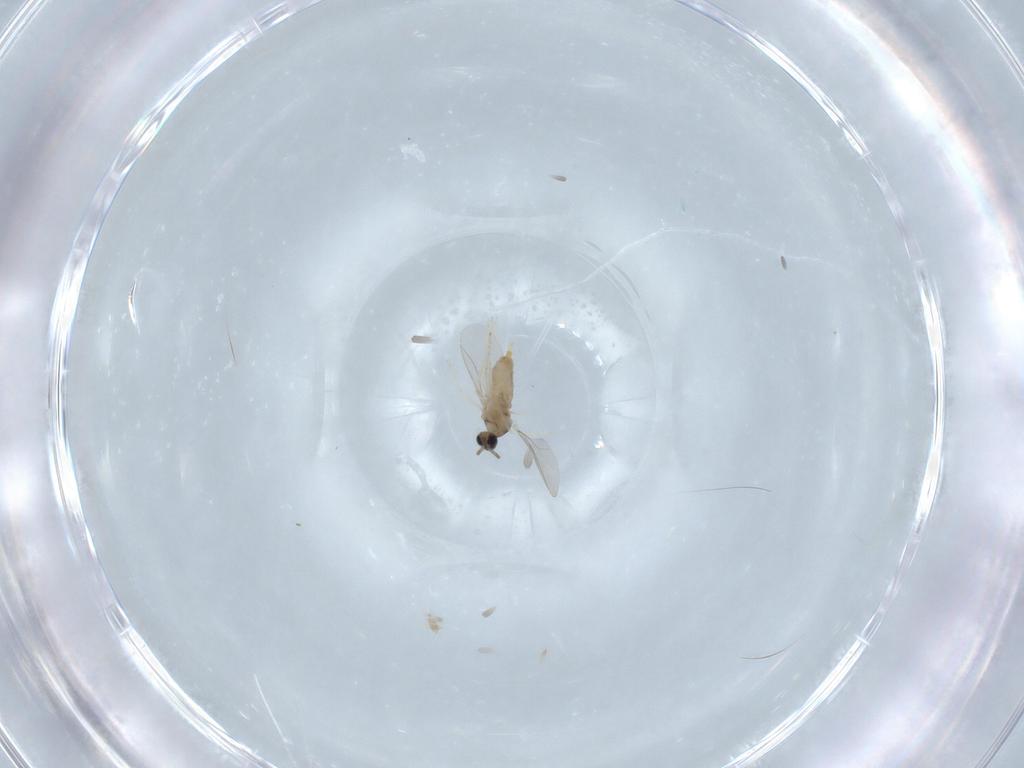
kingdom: Animalia
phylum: Arthropoda
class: Insecta
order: Diptera
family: Cecidomyiidae
